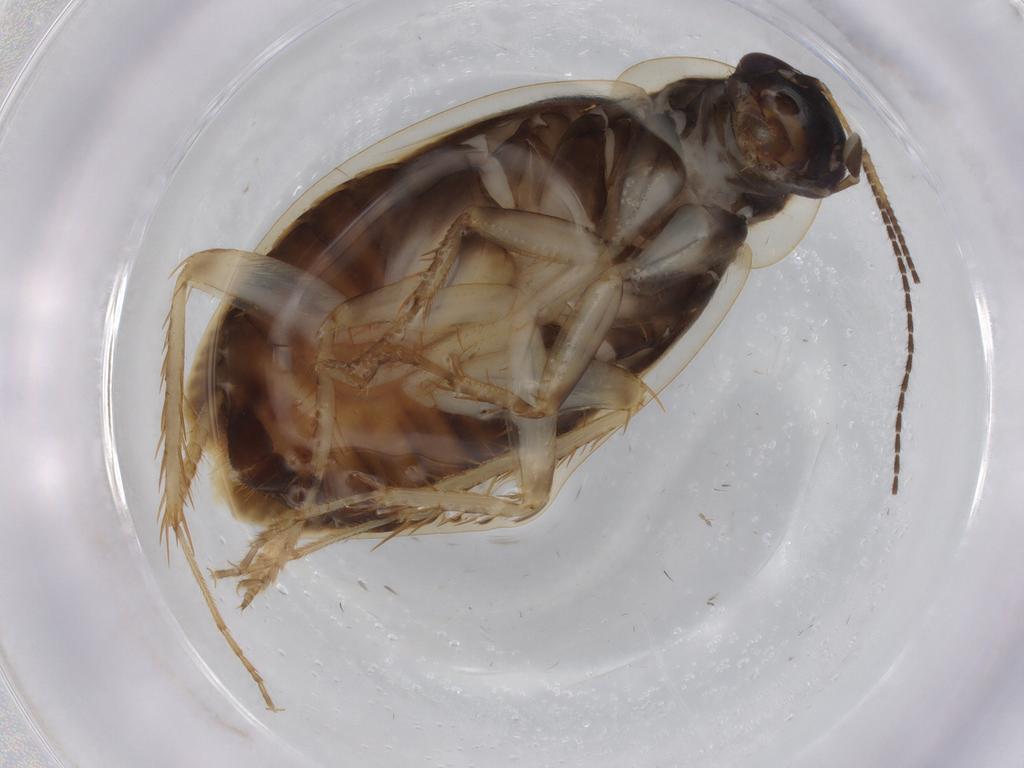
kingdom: Animalia
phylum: Arthropoda
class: Insecta
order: Blattodea
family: Ectobiidae
